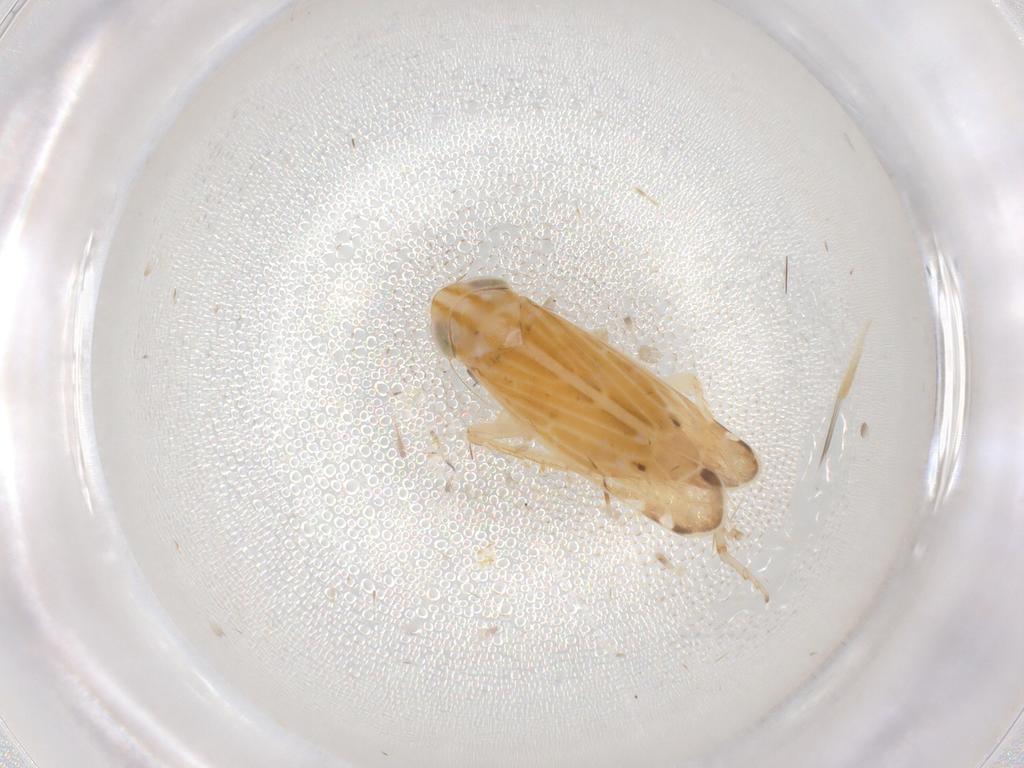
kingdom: Animalia
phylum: Arthropoda
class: Insecta
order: Hemiptera
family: Cicadellidae
